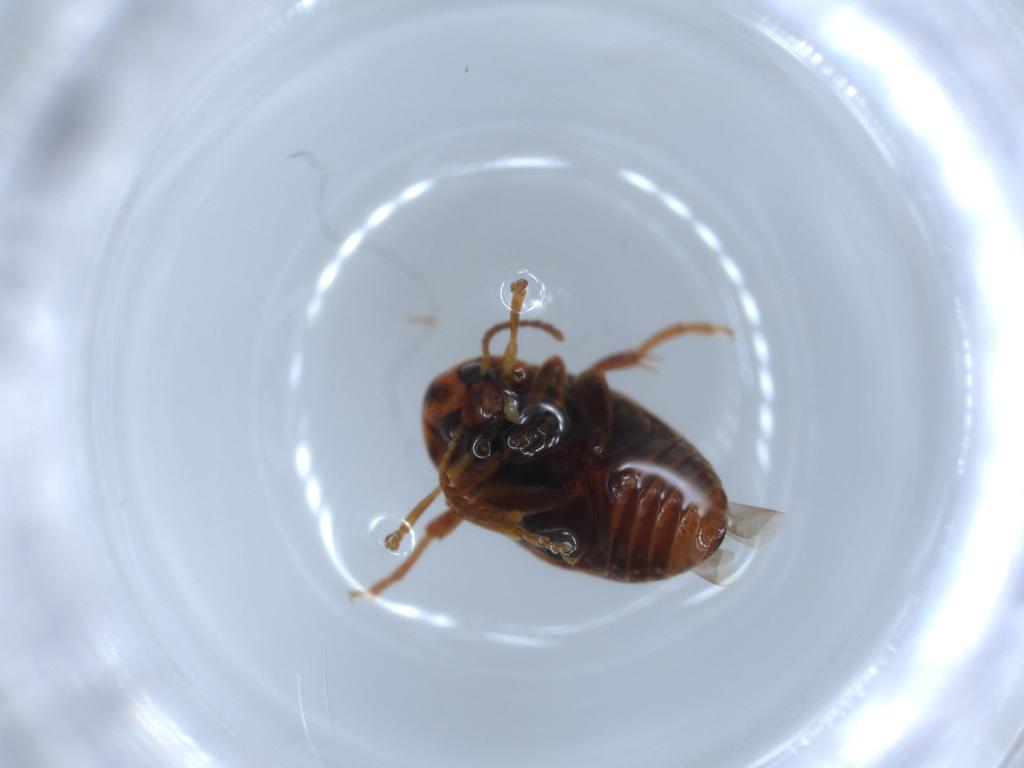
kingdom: Animalia
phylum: Arthropoda
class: Insecta
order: Coleoptera
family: Chrysomelidae
